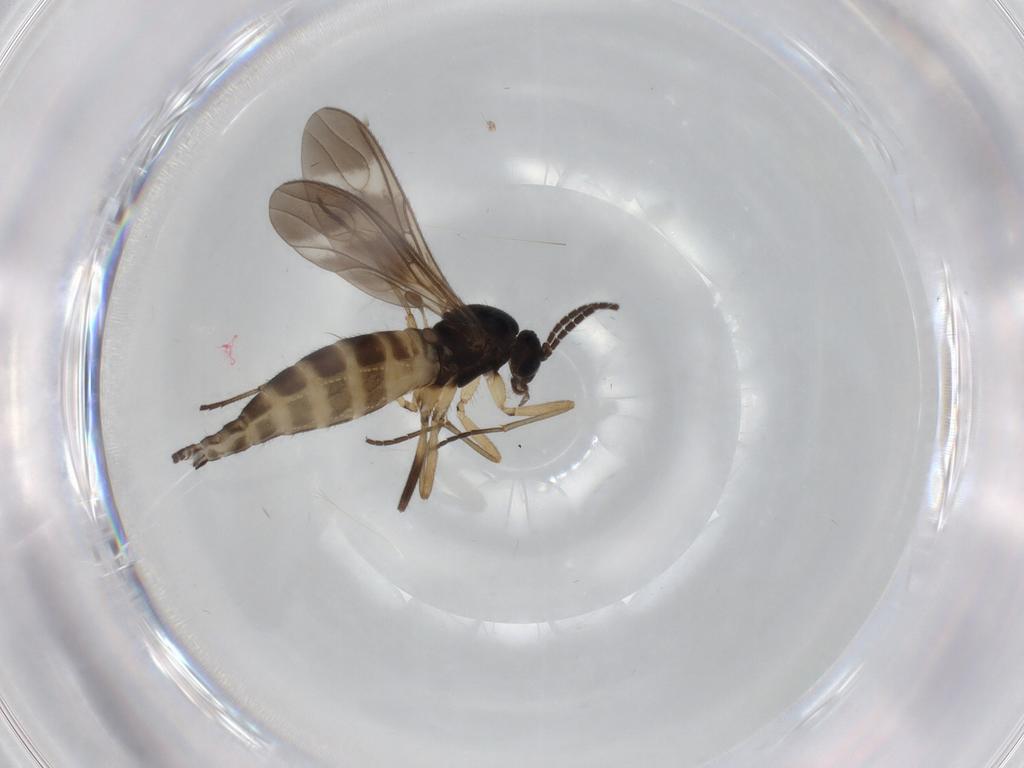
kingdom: Animalia
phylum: Arthropoda
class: Insecta
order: Diptera
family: Sciaridae
